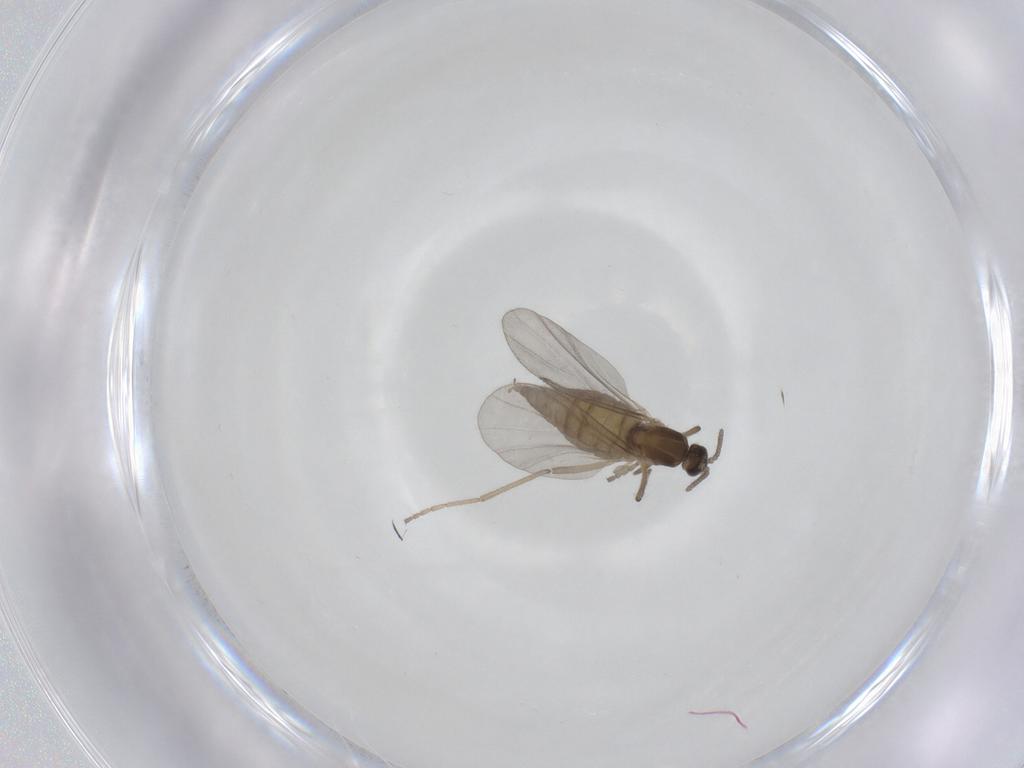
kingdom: Animalia
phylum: Arthropoda
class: Insecta
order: Diptera
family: Cecidomyiidae
